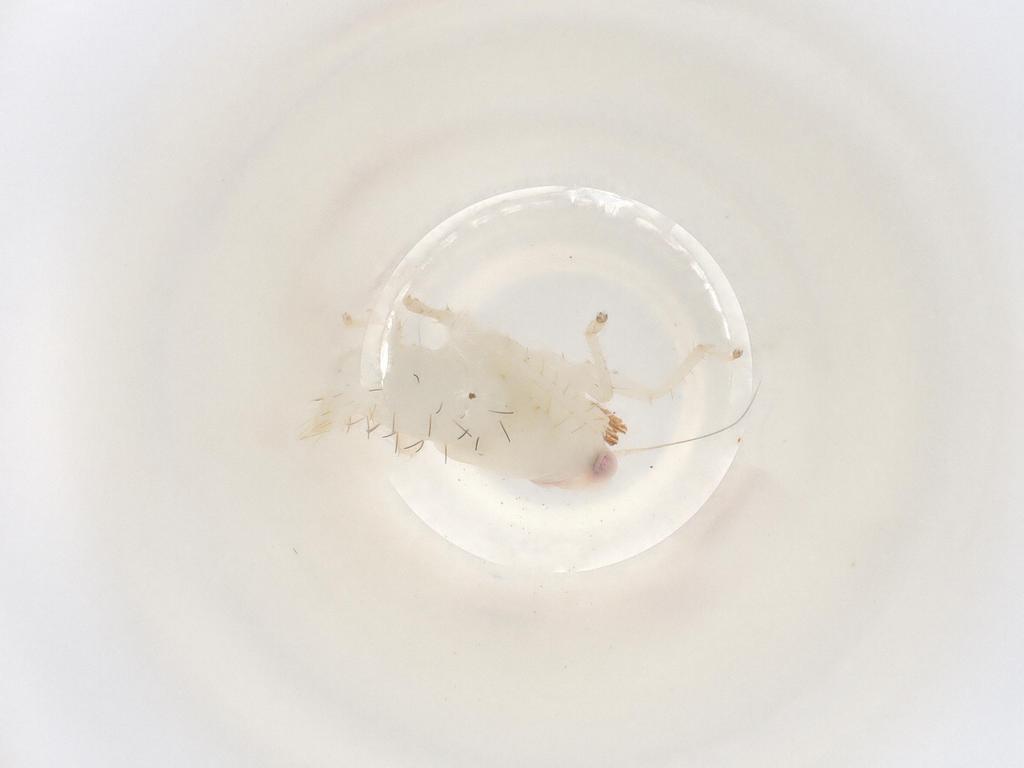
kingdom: Animalia
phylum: Arthropoda
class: Insecta
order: Hemiptera
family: Cicadellidae
